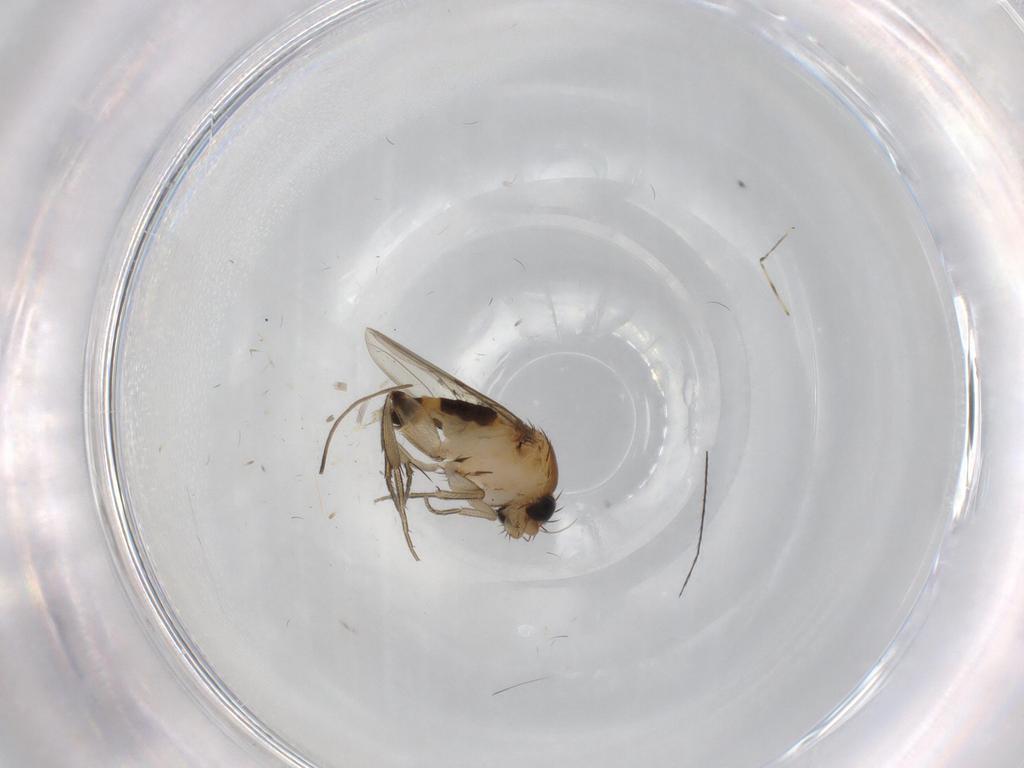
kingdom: Animalia
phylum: Arthropoda
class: Insecta
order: Diptera
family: Phoridae
